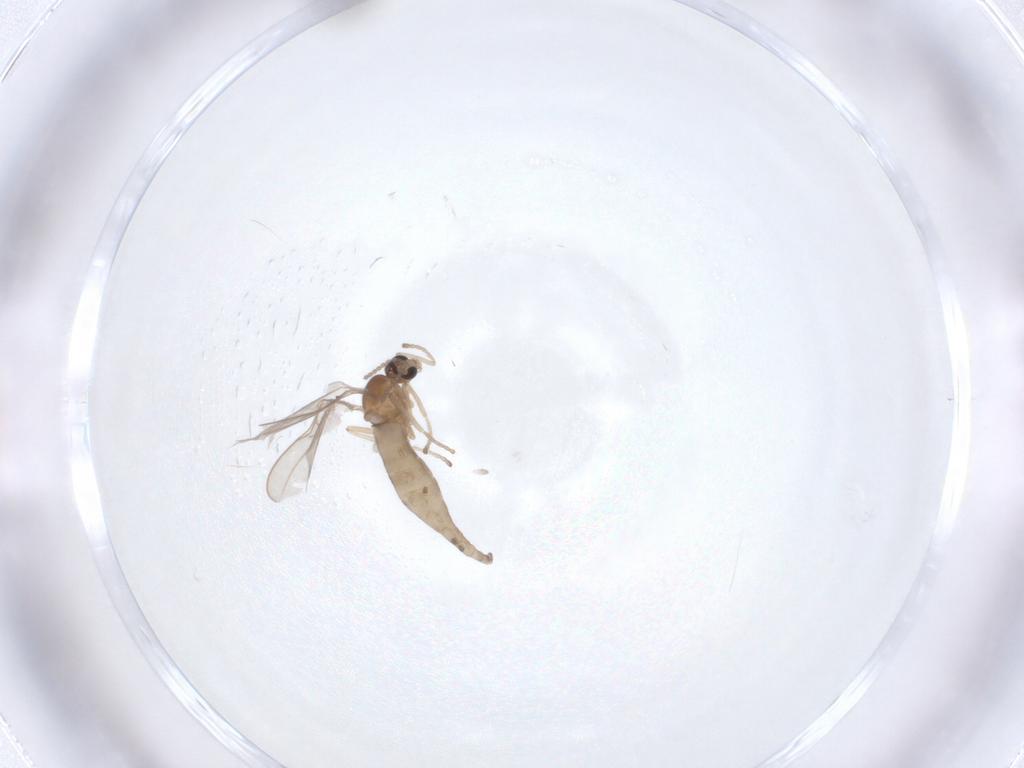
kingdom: Animalia
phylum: Arthropoda
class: Insecta
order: Diptera
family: Cecidomyiidae
